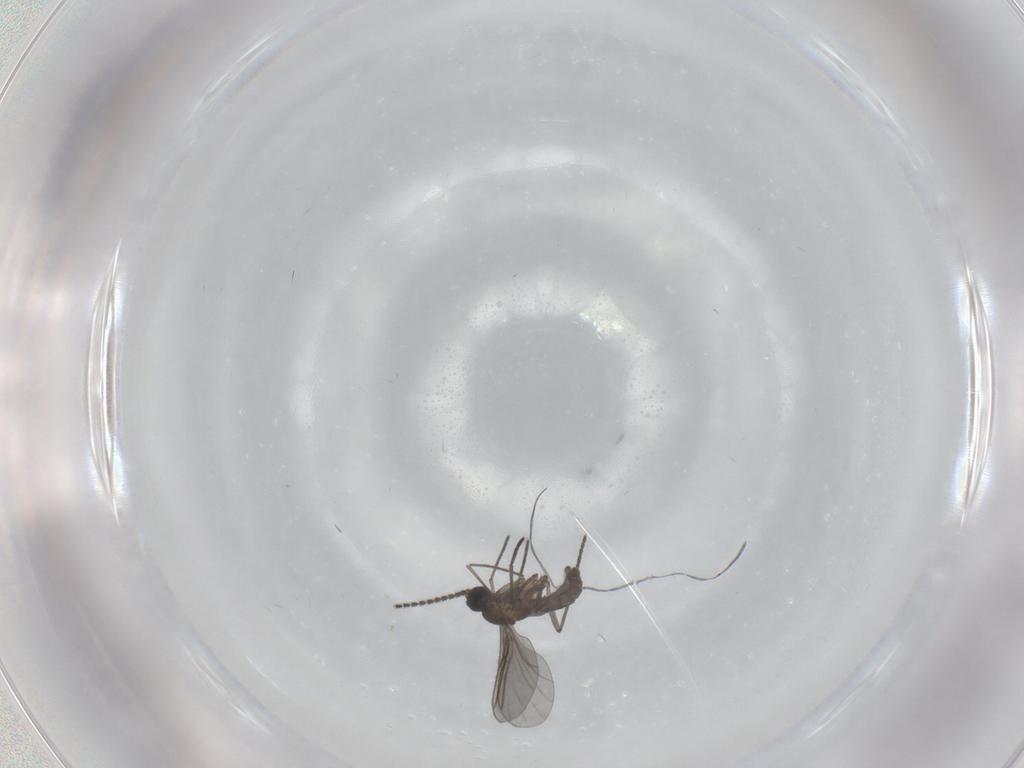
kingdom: Animalia
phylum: Arthropoda
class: Insecta
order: Diptera
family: Sciaridae
